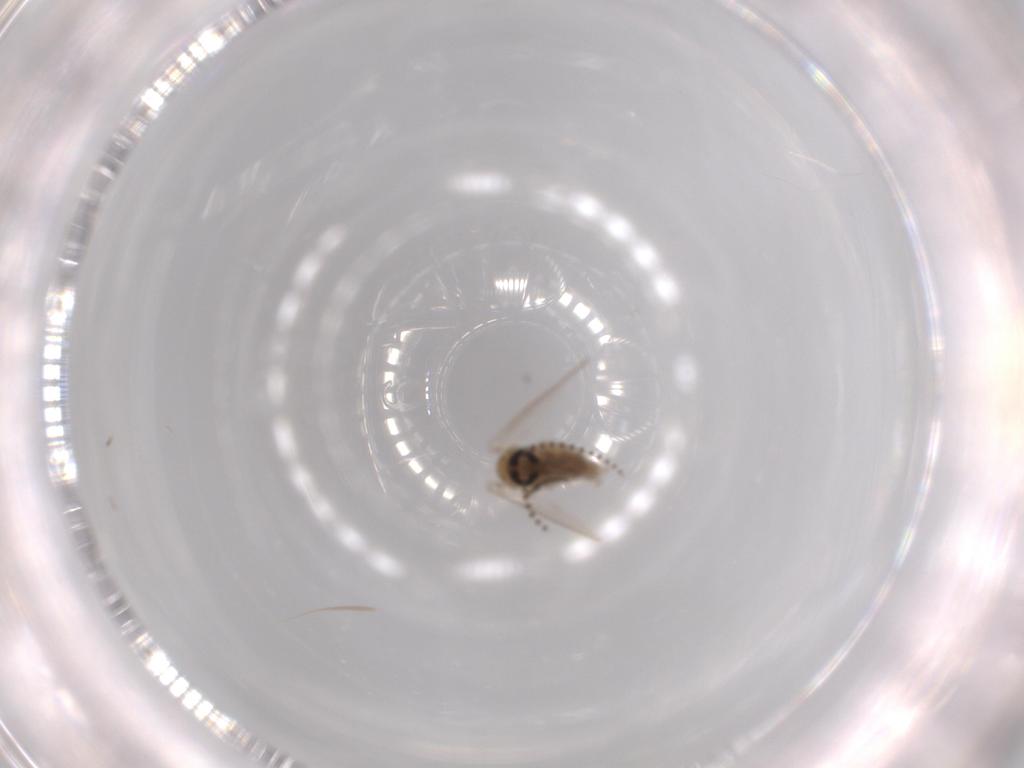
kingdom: Animalia
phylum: Arthropoda
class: Insecta
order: Diptera
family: Psychodidae
